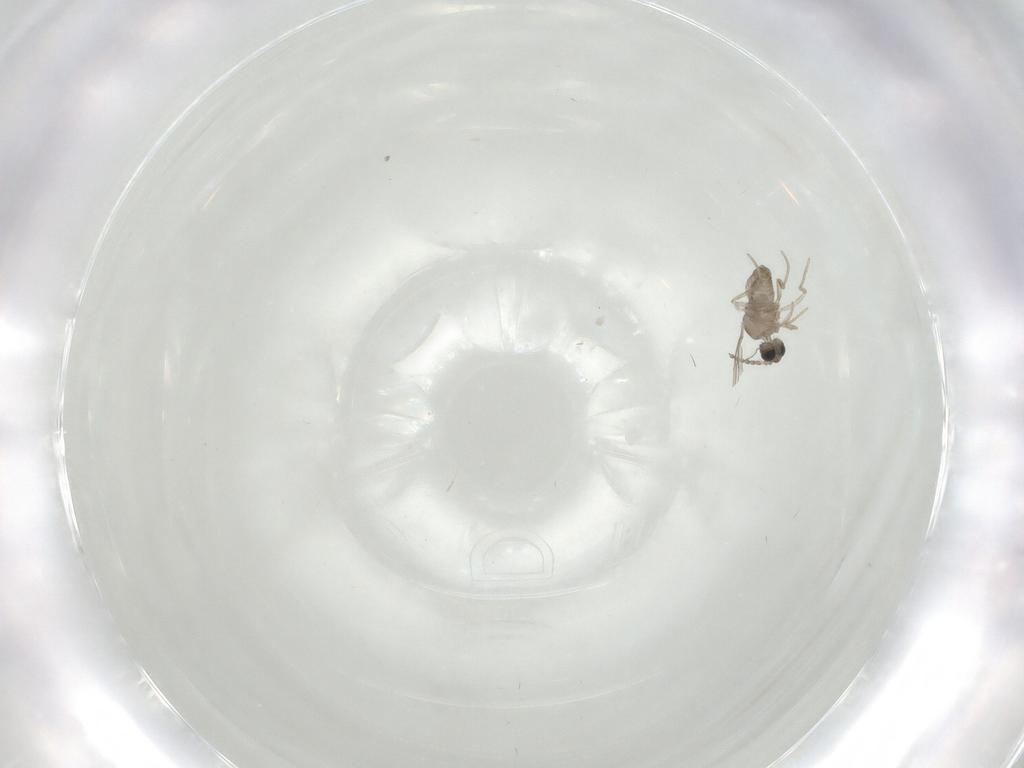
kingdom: Animalia
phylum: Arthropoda
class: Insecta
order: Diptera
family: Cecidomyiidae
